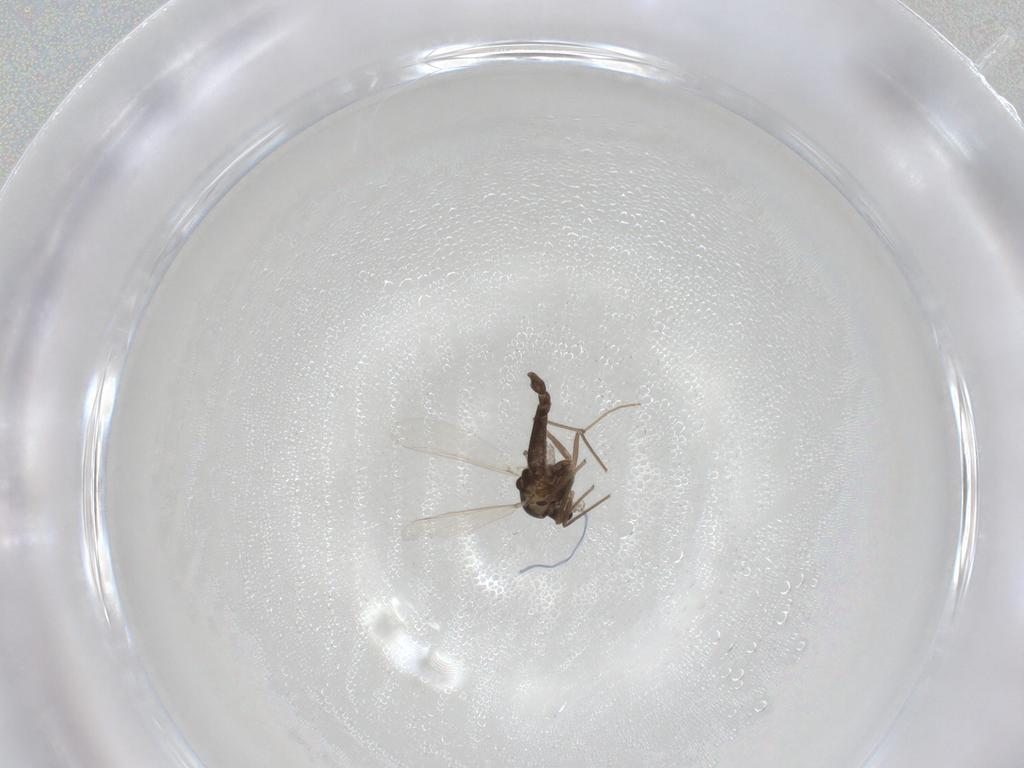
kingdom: Animalia
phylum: Arthropoda
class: Insecta
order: Diptera
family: Chironomidae
